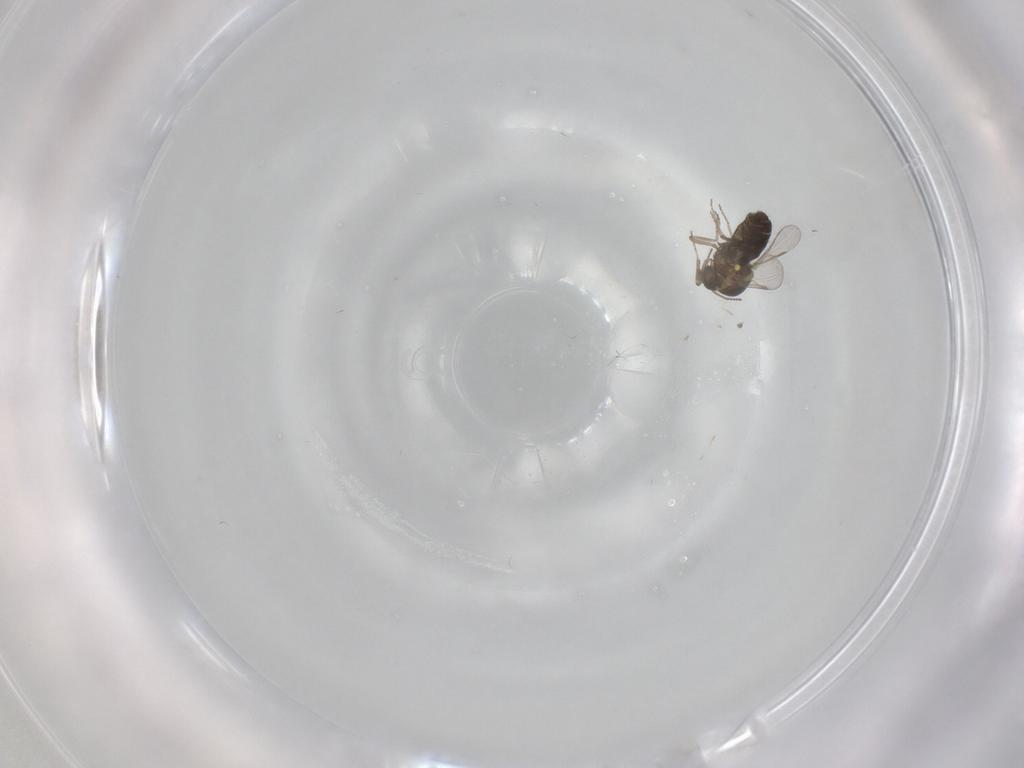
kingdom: Animalia
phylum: Arthropoda
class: Insecta
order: Diptera
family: Ceratopogonidae
